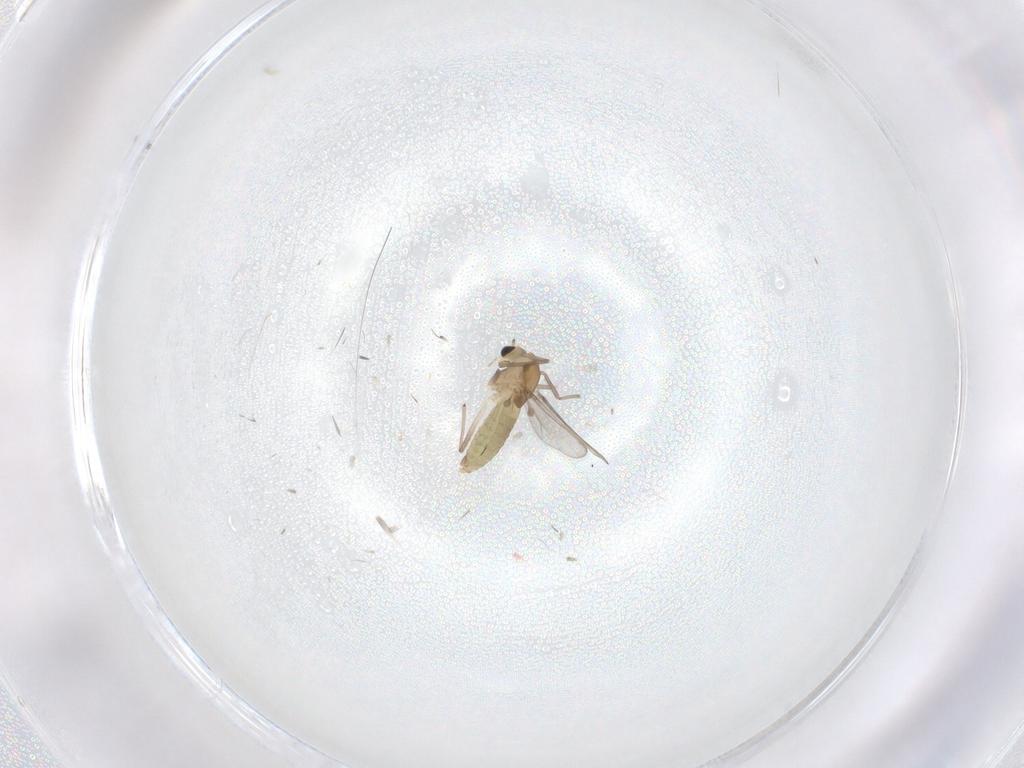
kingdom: Animalia
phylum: Arthropoda
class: Insecta
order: Diptera
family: Chironomidae
